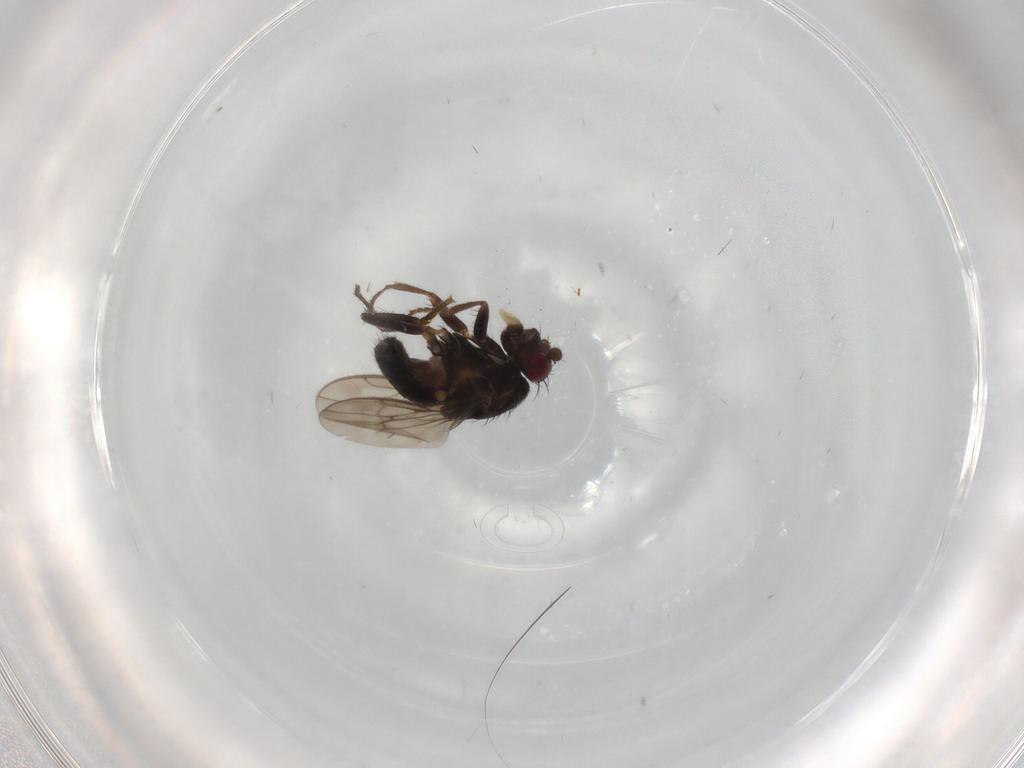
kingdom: Animalia
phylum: Arthropoda
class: Insecta
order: Diptera
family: Sphaeroceridae
